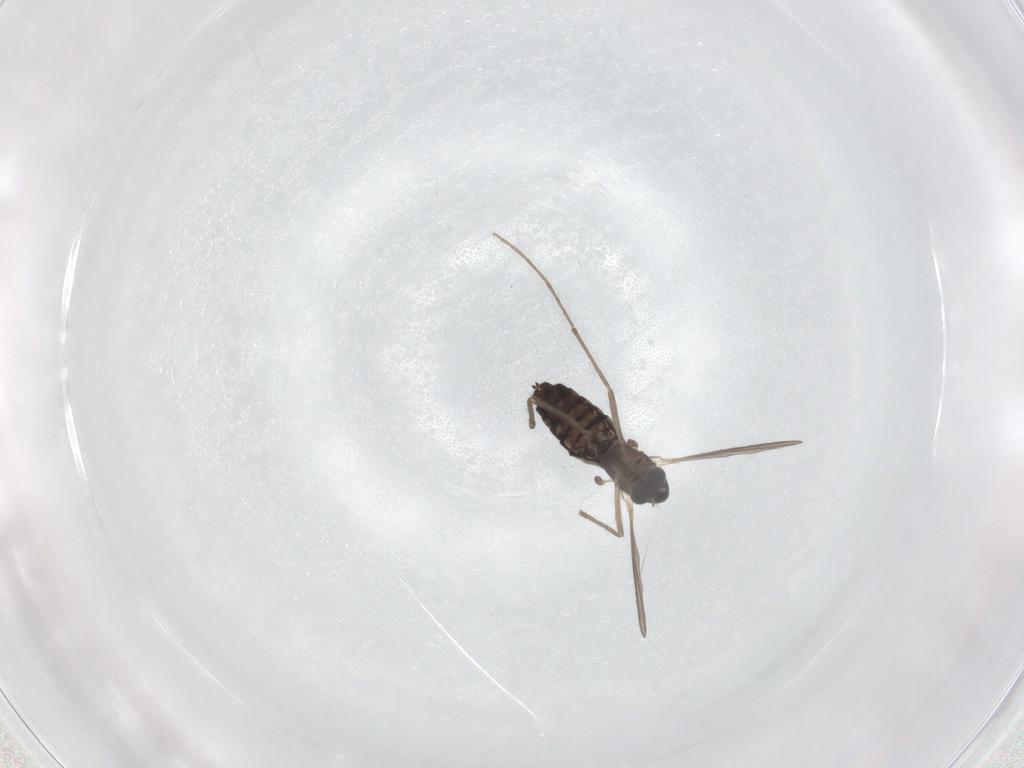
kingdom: Animalia
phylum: Arthropoda
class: Insecta
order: Diptera
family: Chironomidae
